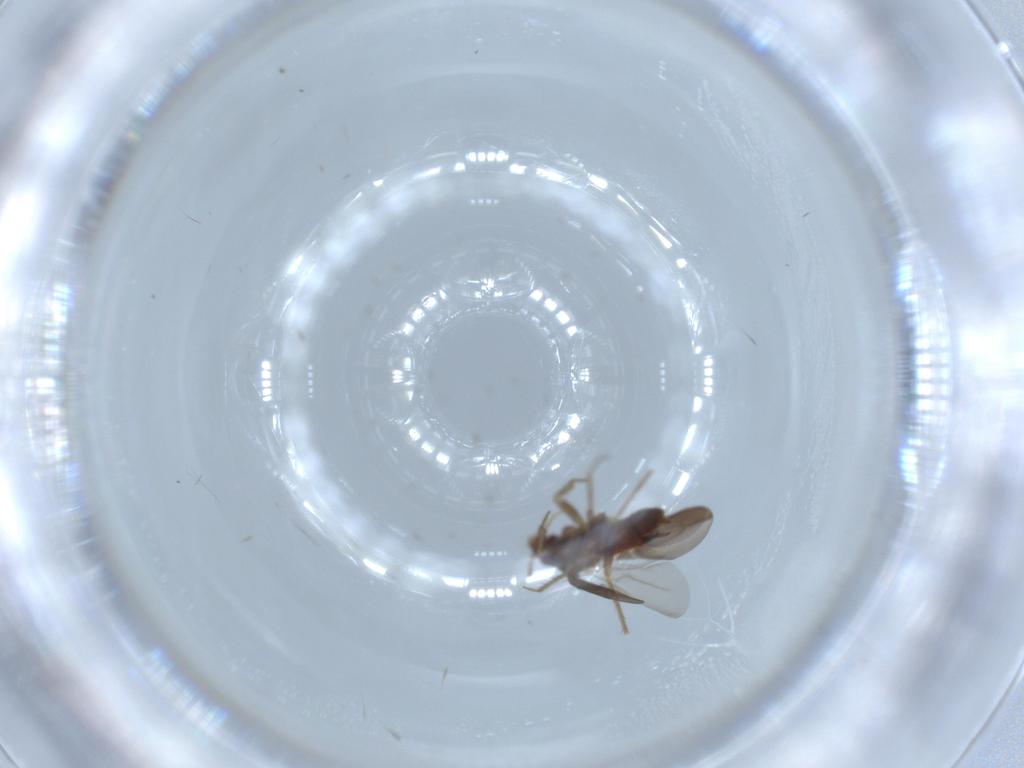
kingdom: Animalia
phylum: Arthropoda
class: Insecta
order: Hemiptera
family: Ceratocombidae
